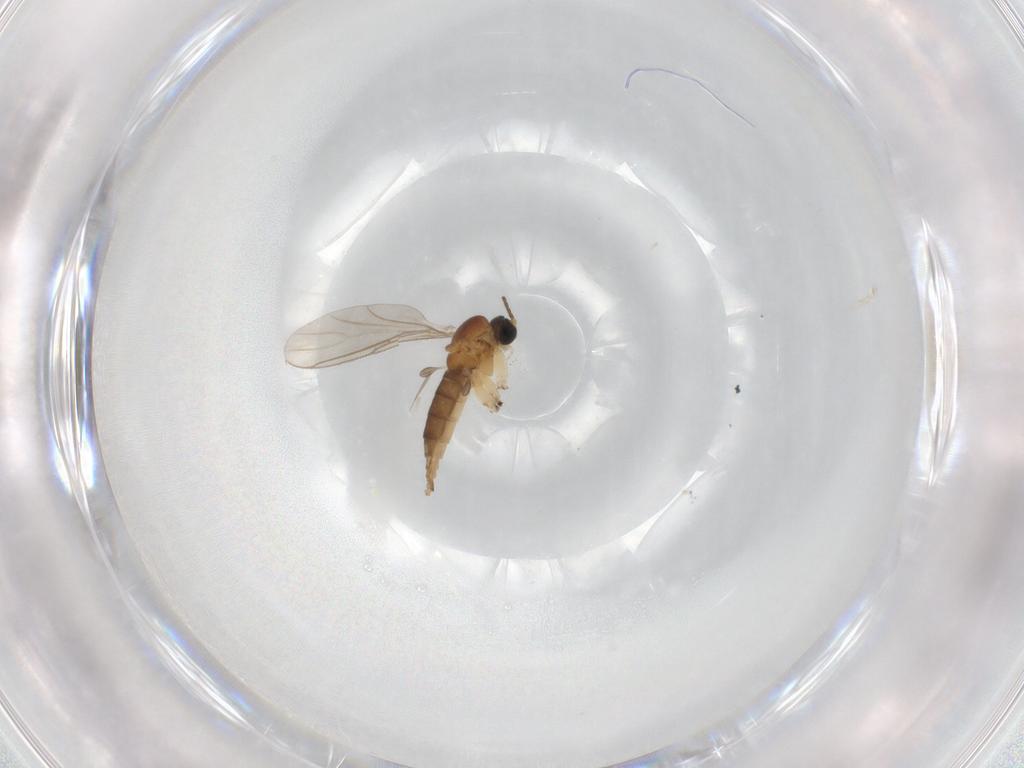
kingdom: Animalia
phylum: Arthropoda
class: Insecta
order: Diptera
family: Sciaridae
